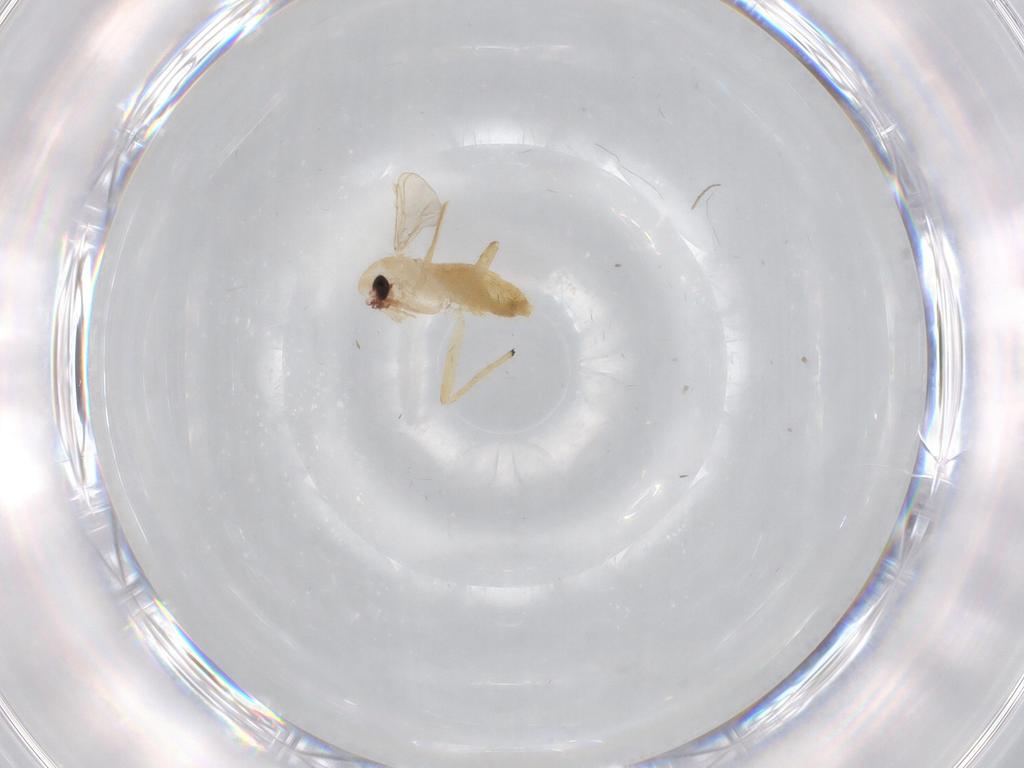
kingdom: Animalia
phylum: Arthropoda
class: Insecta
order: Diptera
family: Chironomidae
